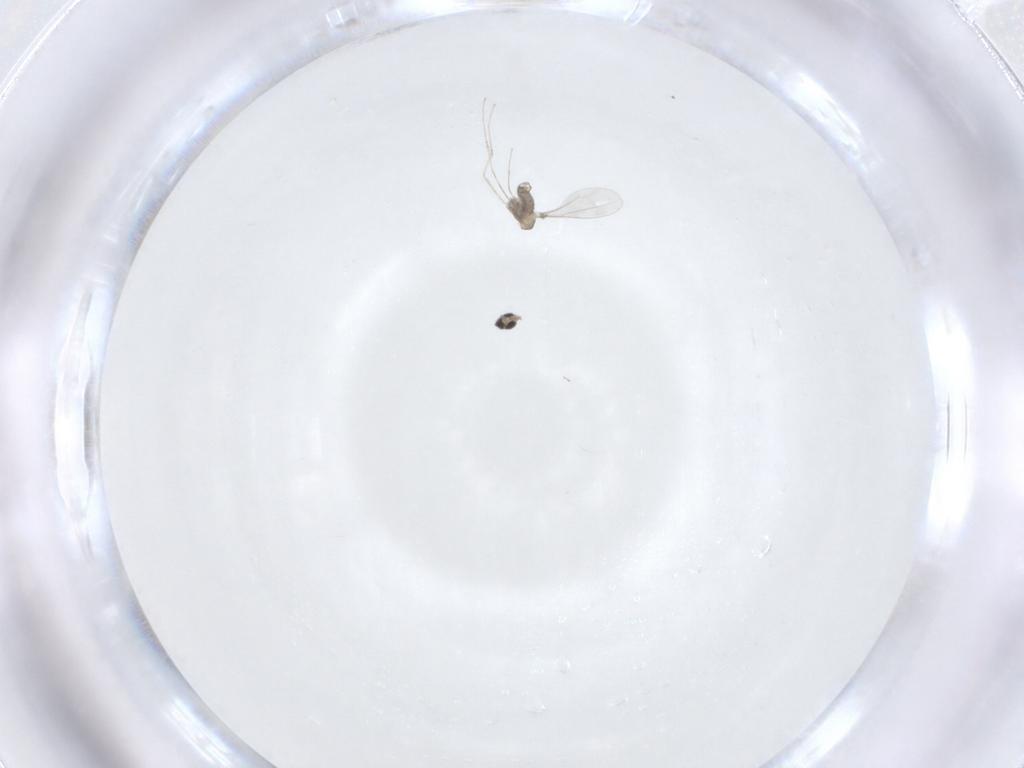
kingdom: Animalia
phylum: Arthropoda
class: Insecta
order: Diptera
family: Cecidomyiidae
